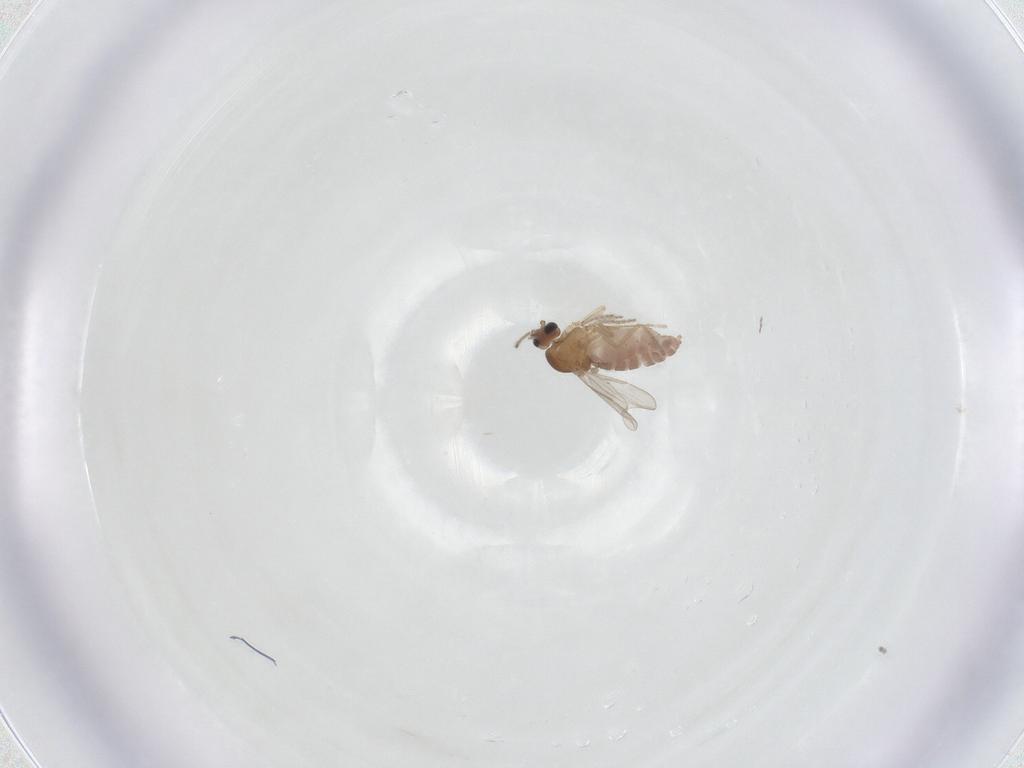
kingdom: Animalia
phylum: Arthropoda
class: Insecta
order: Diptera
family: Ceratopogonidae
